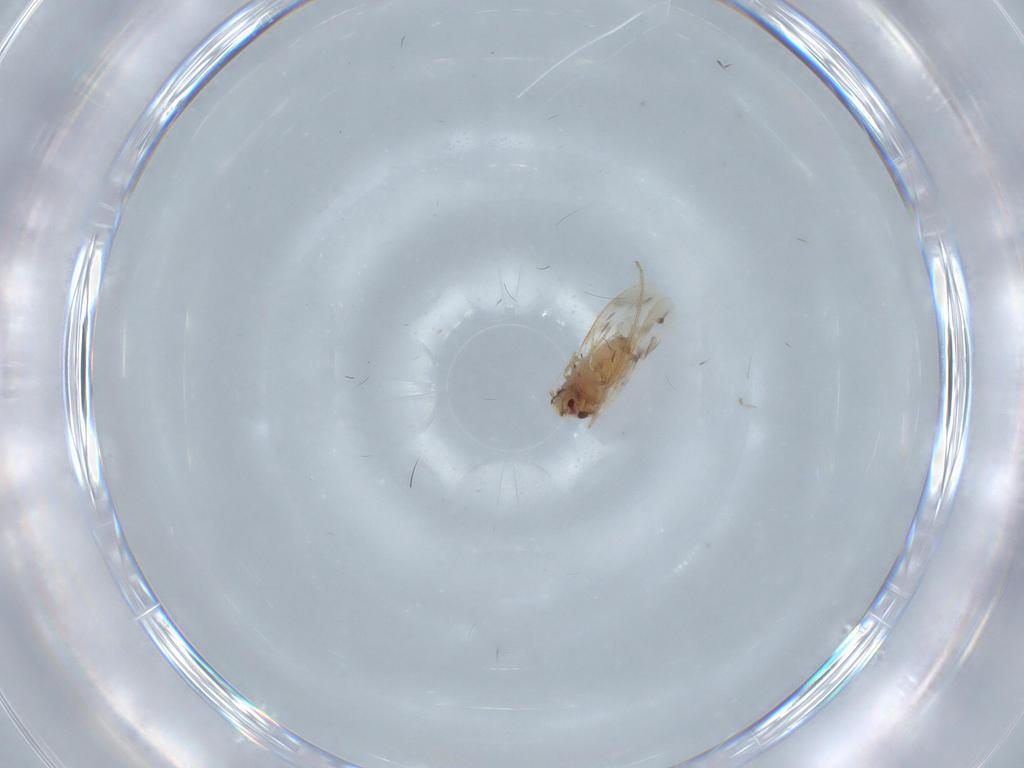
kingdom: Animalia
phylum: Arthropoda
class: Insecta
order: Hemiptera
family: Aleyrodidae
